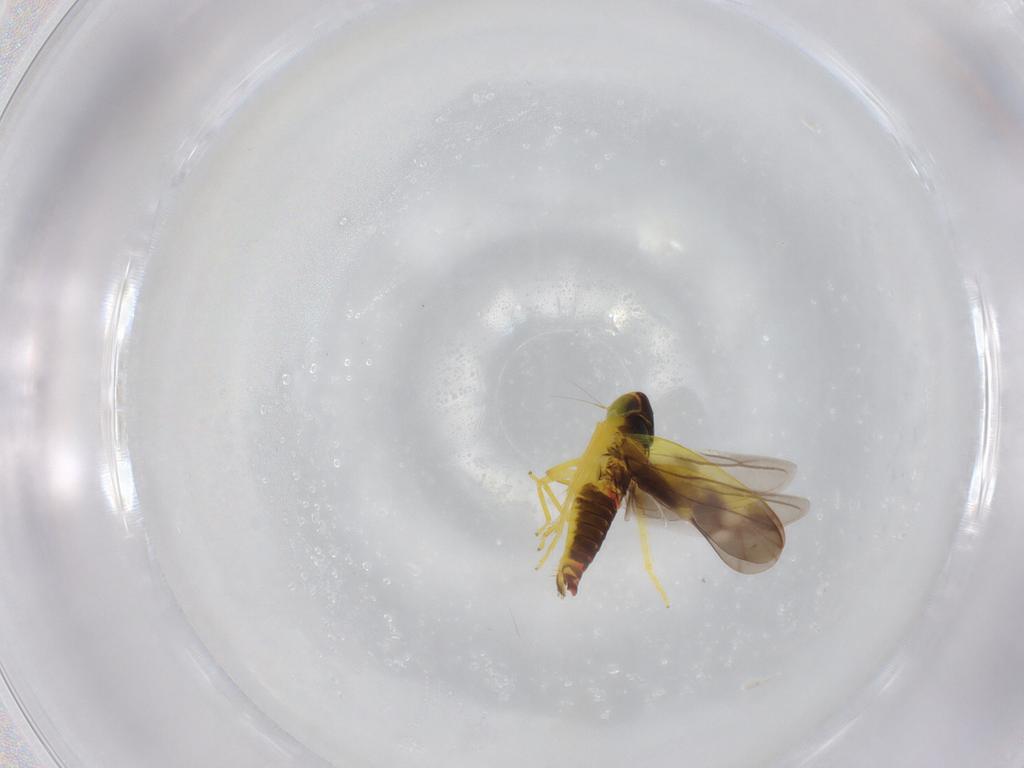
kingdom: Animalia
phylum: Arthropoda
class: Insecta
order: Hemiptera
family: Cicadellidae
